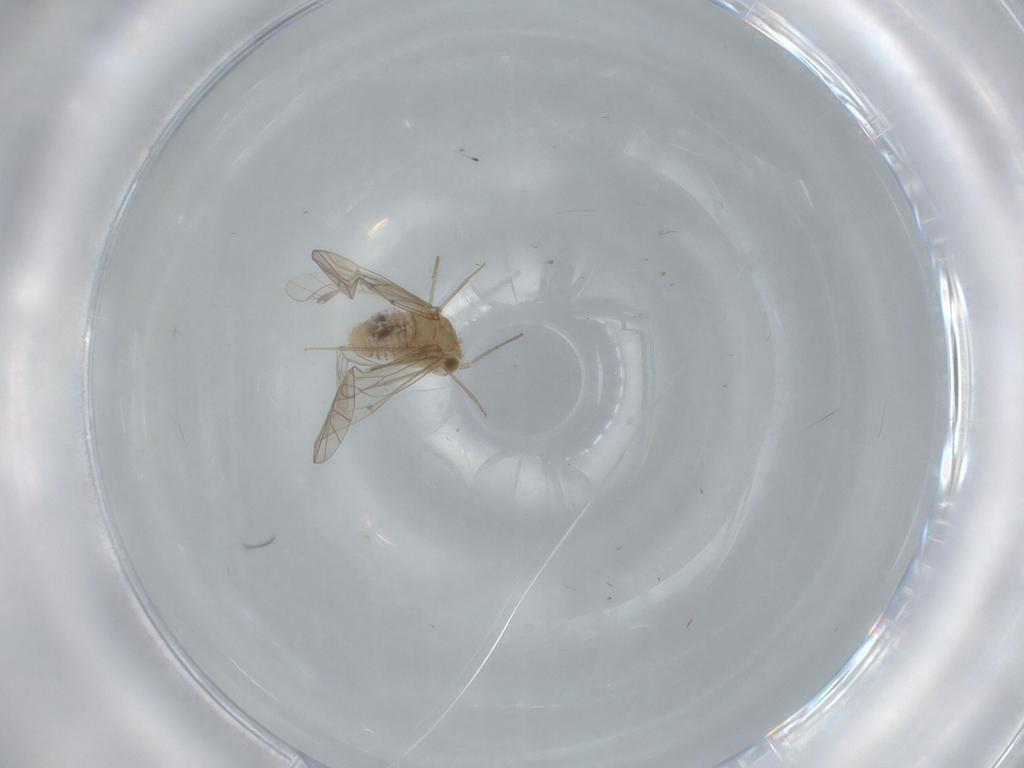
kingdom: Animalia
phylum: Arthropoda
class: Insecta
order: Psocodea
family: Lachesillidae
